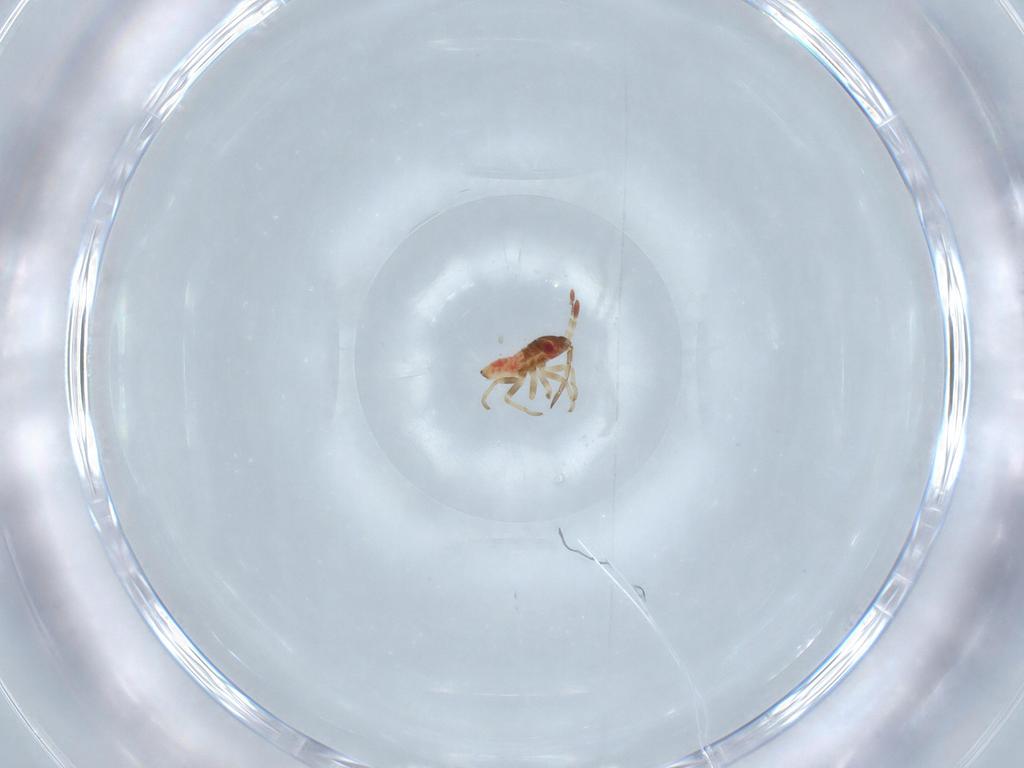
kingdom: Animalia
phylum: Arthropoda
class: Insecta
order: Hemiptera
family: Lygaeidae
